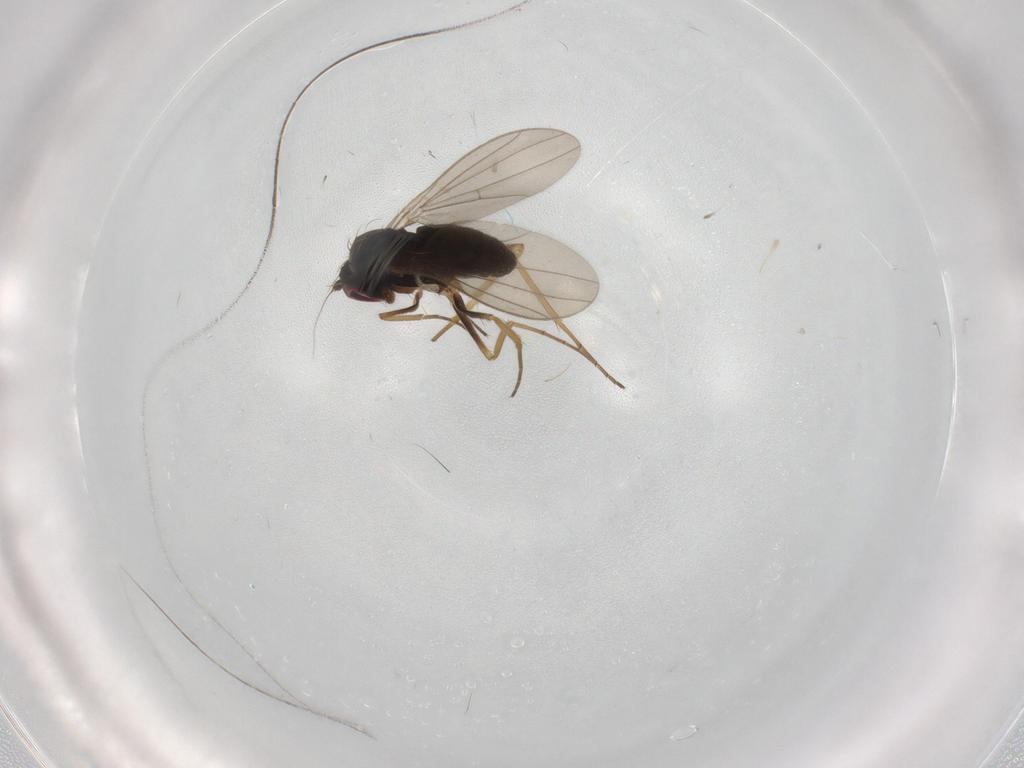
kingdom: Animalia
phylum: Arthropoda
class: Insecta
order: Diptera
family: Dolichopodidae
